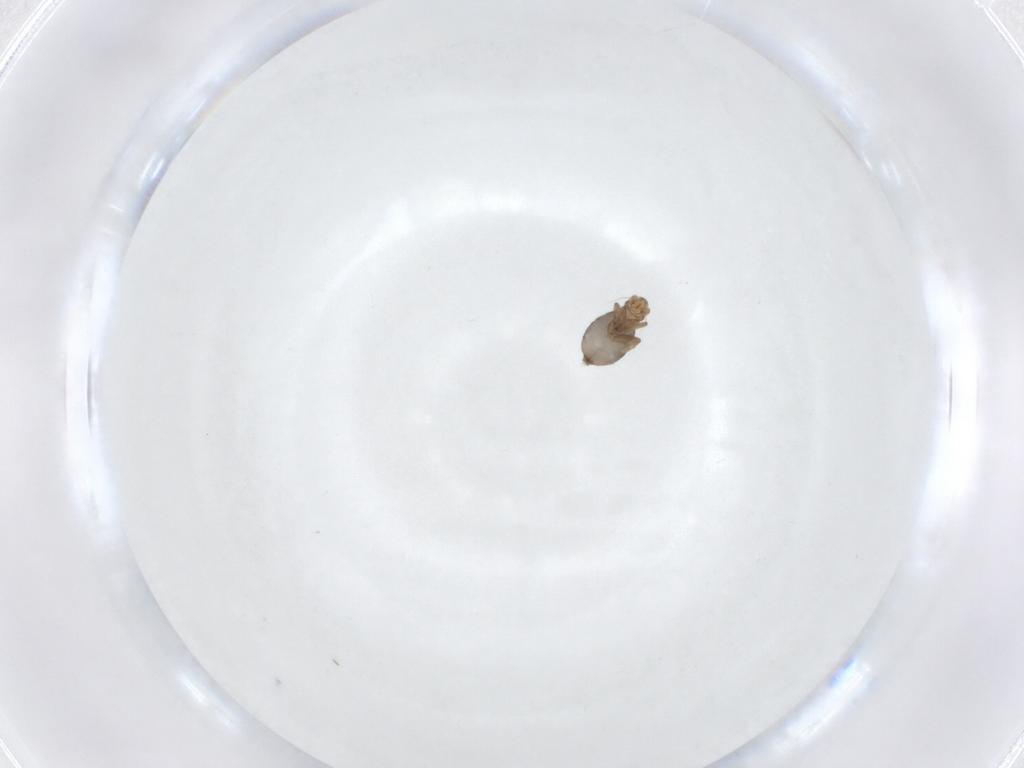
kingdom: Animalia
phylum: Arthropoda
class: Insecta
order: Diptera
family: Phoridae
